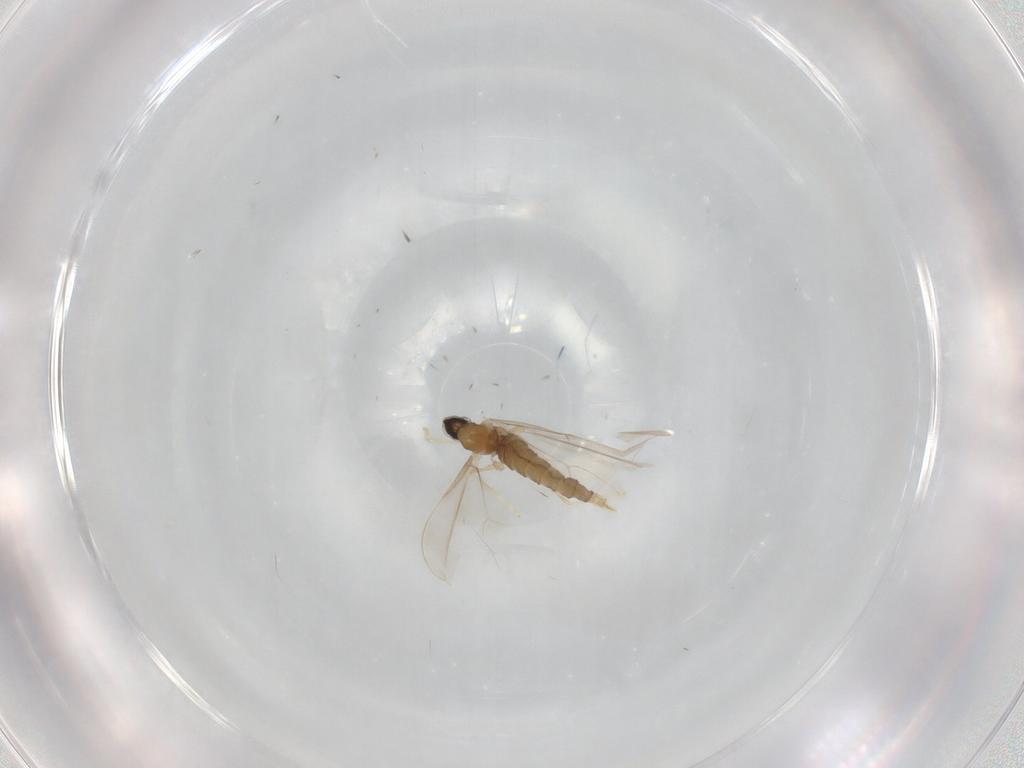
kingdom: Animalia
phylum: Arthropoda
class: Insecta
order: Diptera
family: Cecidomyiidae
